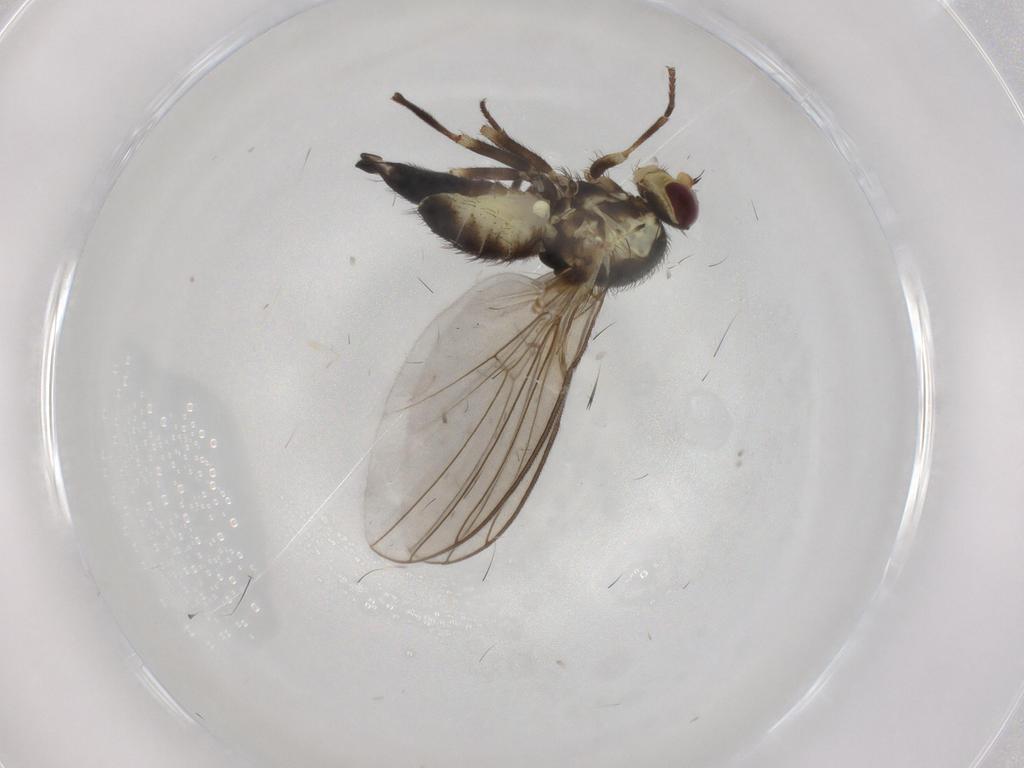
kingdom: Animalia
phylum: Arthropoda
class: Insecta
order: Diptera
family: Agromyzidae
